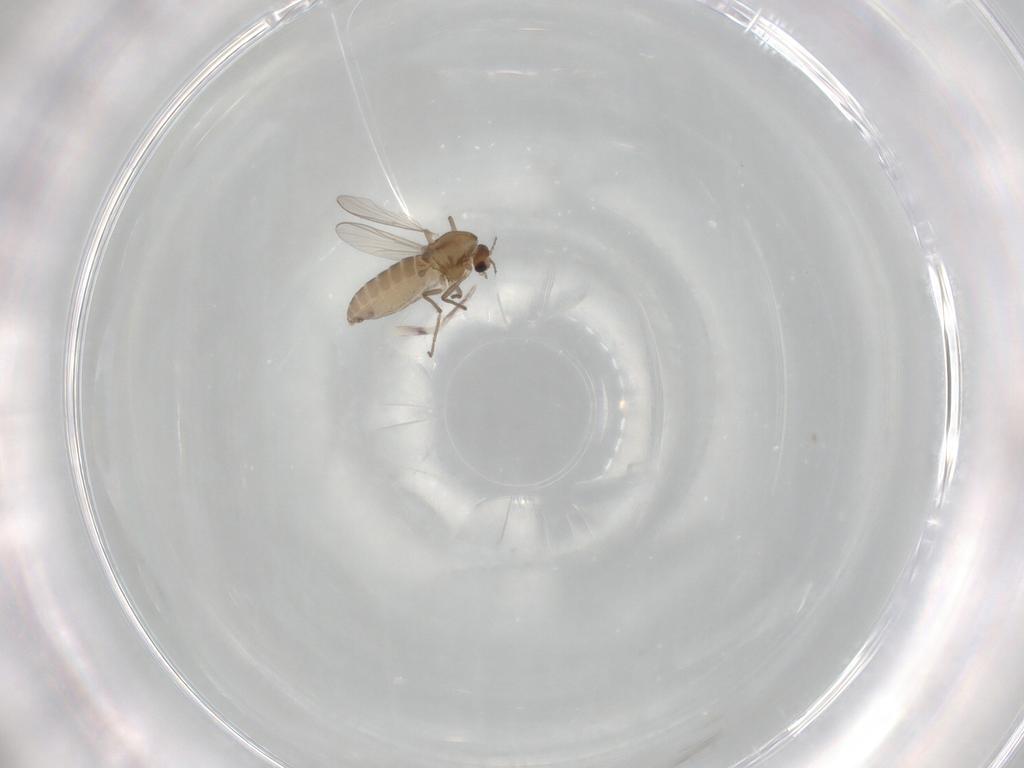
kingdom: Animalia
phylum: Arthropoda
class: Insecta
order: Diptera
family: Chironomidae
